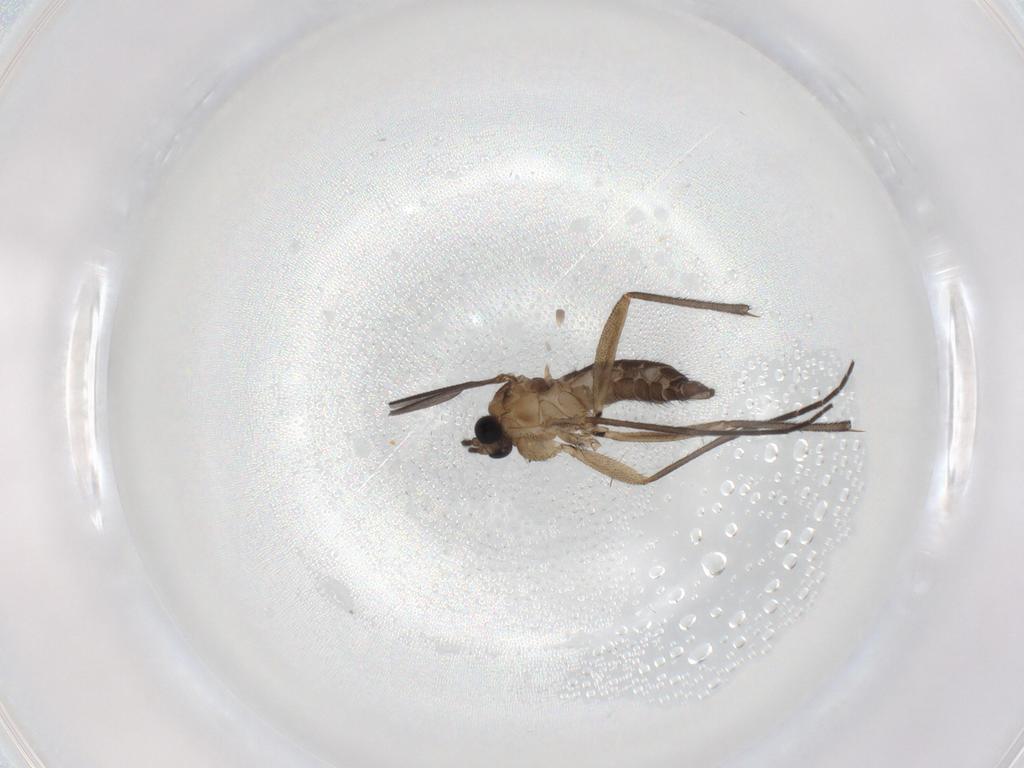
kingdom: Animalia
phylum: Arthropoda
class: Insecta
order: Diptera
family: Sciaridae
